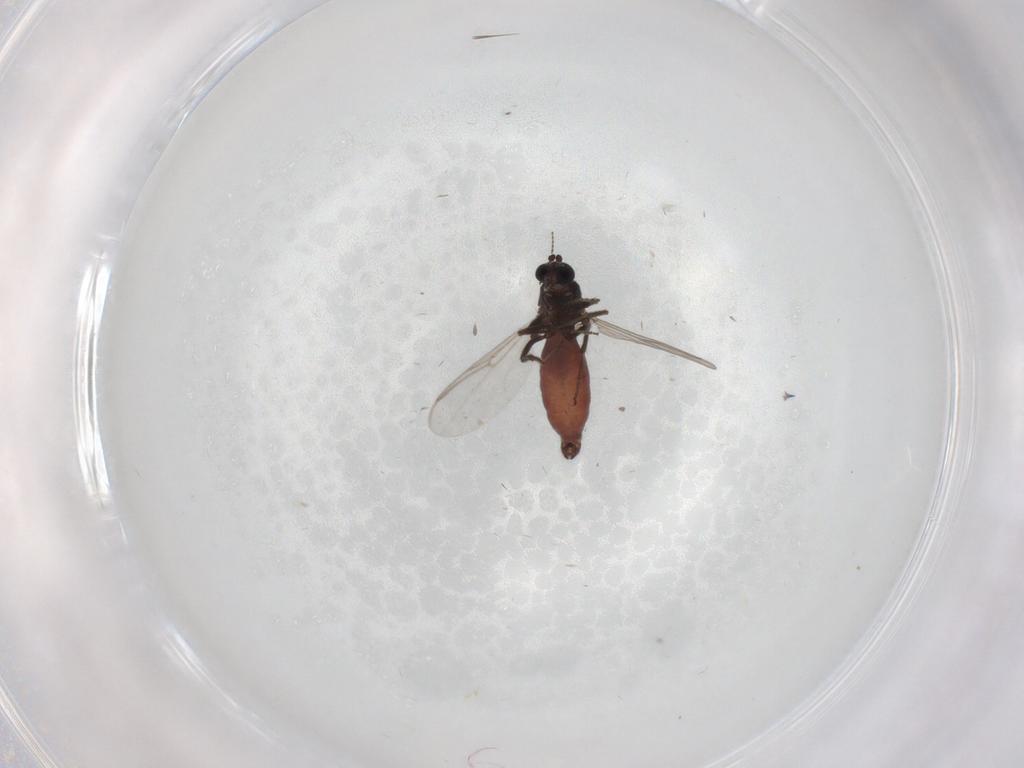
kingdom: Animalia
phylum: Arthropoda
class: Insecta
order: Diptera
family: Ceratopogonidae
